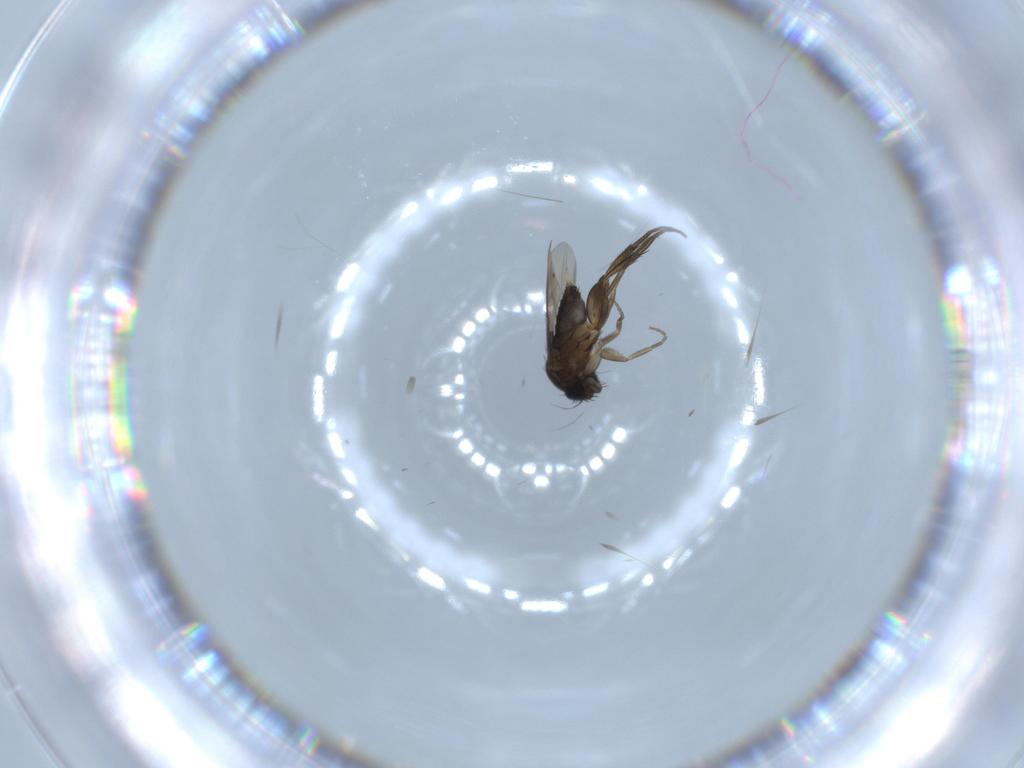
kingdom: Animalia
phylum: Arthropoda
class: Insecta
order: Diptera
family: Phoridae
